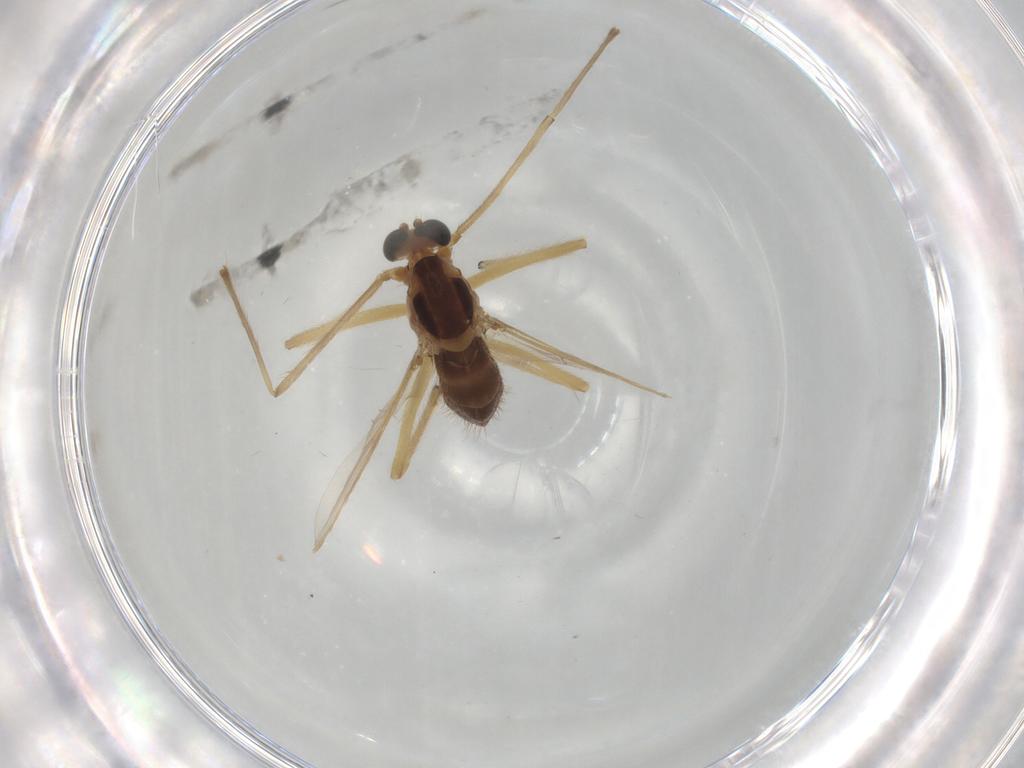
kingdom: Animalia
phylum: Arthropoda
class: Insecta
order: Diptera
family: Chironomidae
